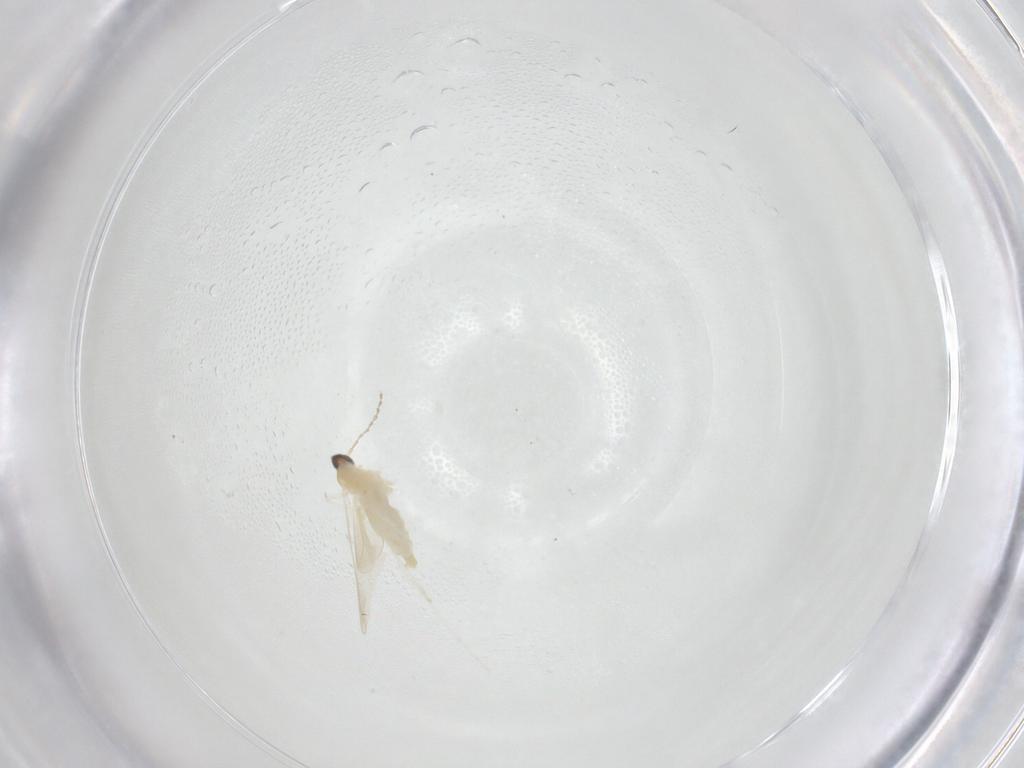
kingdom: Animalia
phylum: Arthropoda
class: Insecta
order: Diptera
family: Cecidomyiidae
